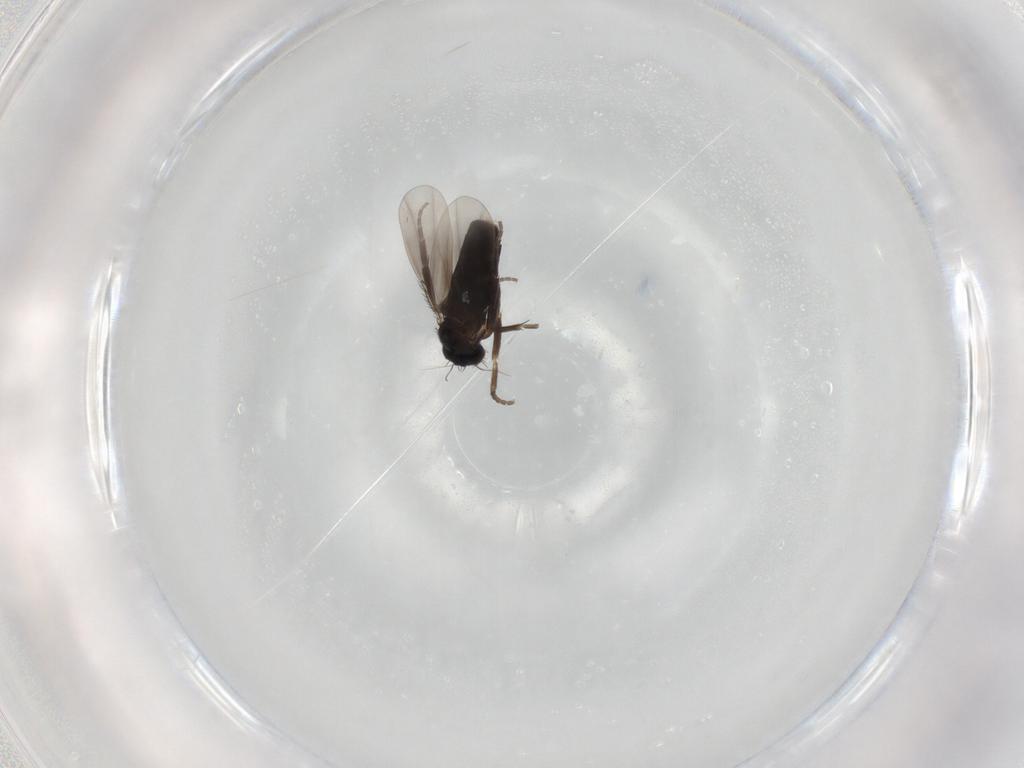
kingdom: Animalia
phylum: Arthropoda
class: Insecta
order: Diptera
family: Phoridae
